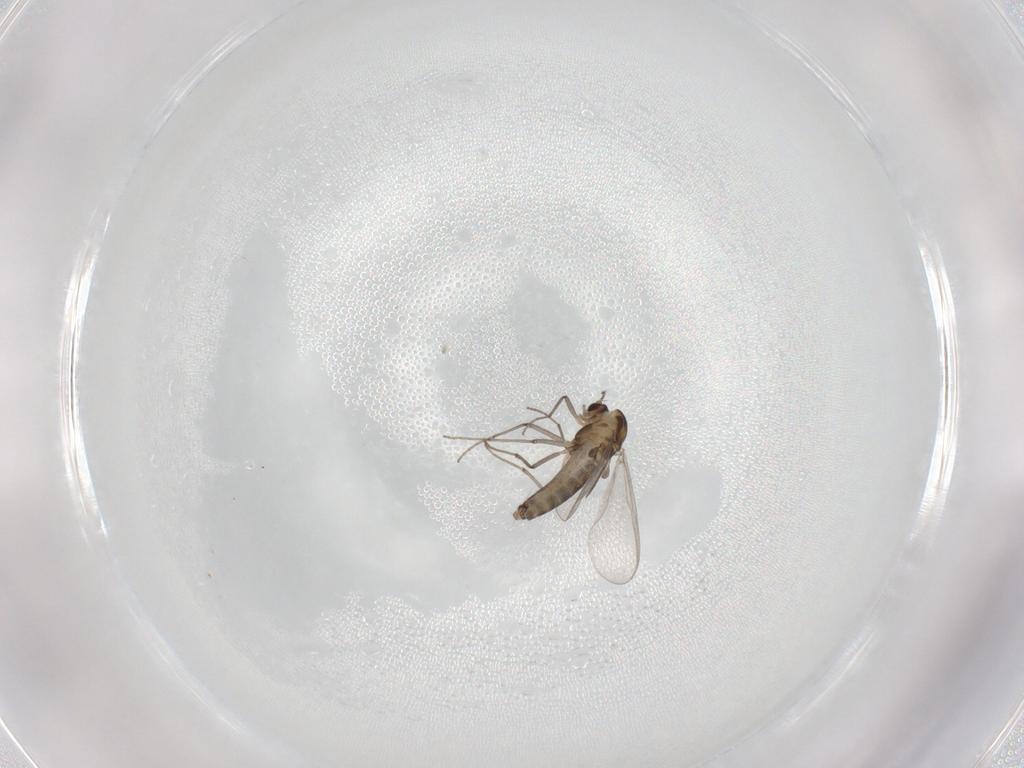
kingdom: Animalia
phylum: Arthropoda
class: Insecta
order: Diptera
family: Chironomidae
